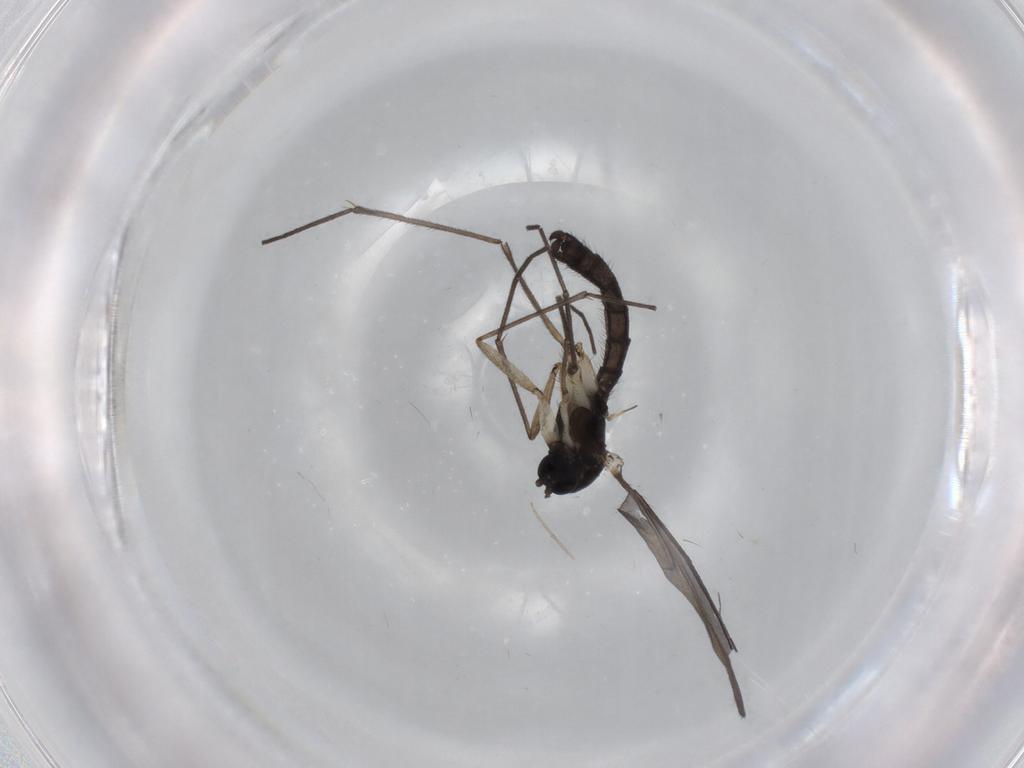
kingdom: Animalia
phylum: Arthropoda
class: Insecta
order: Diptera
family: Sciaridae
